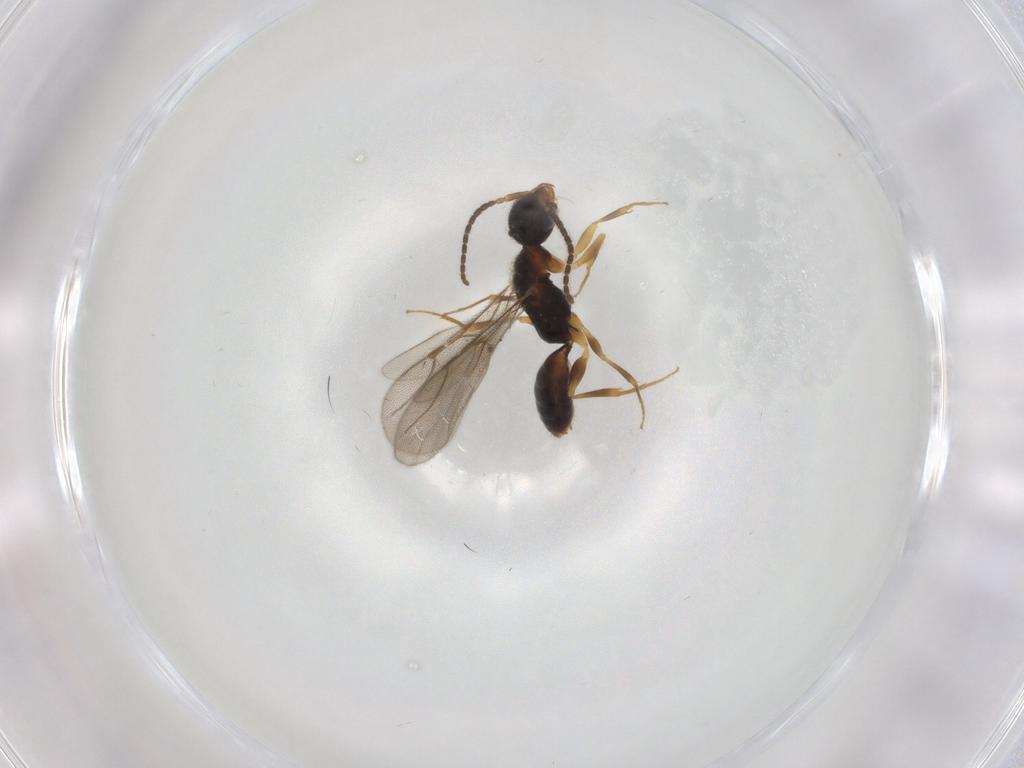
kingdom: Animalia
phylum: Arthropoda
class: Insecta
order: Hymenoptera
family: Bethylidae
